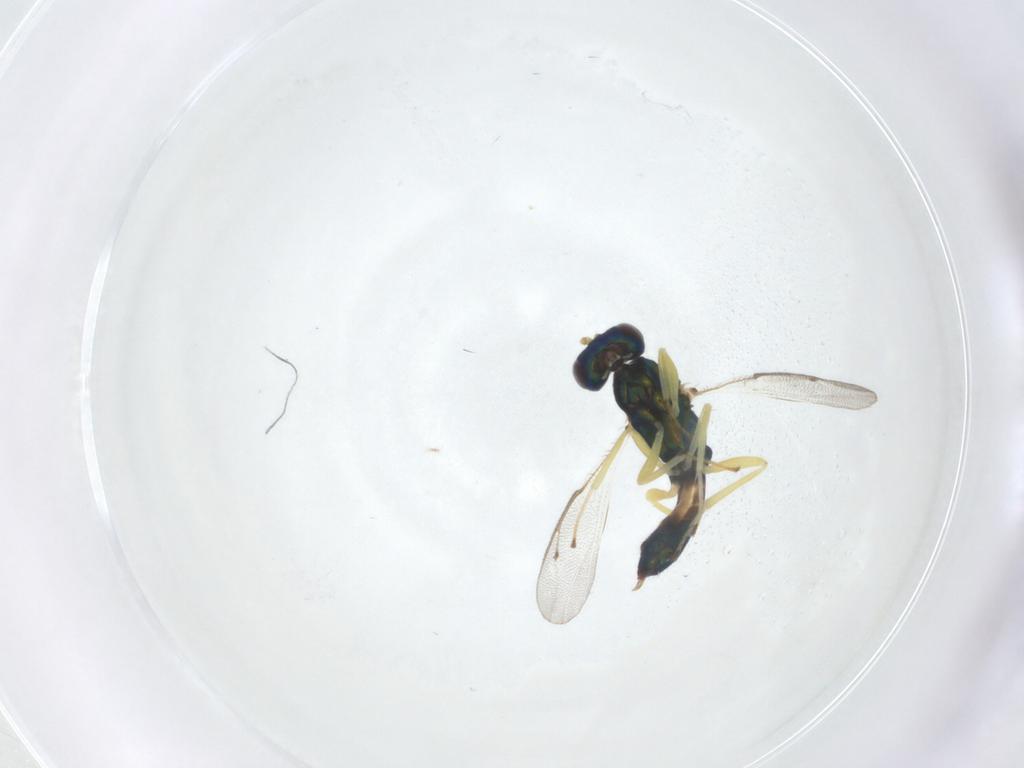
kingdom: Animalia
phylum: Arthropoda
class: Insecta
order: Hymenoptera
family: Pteromalidae
